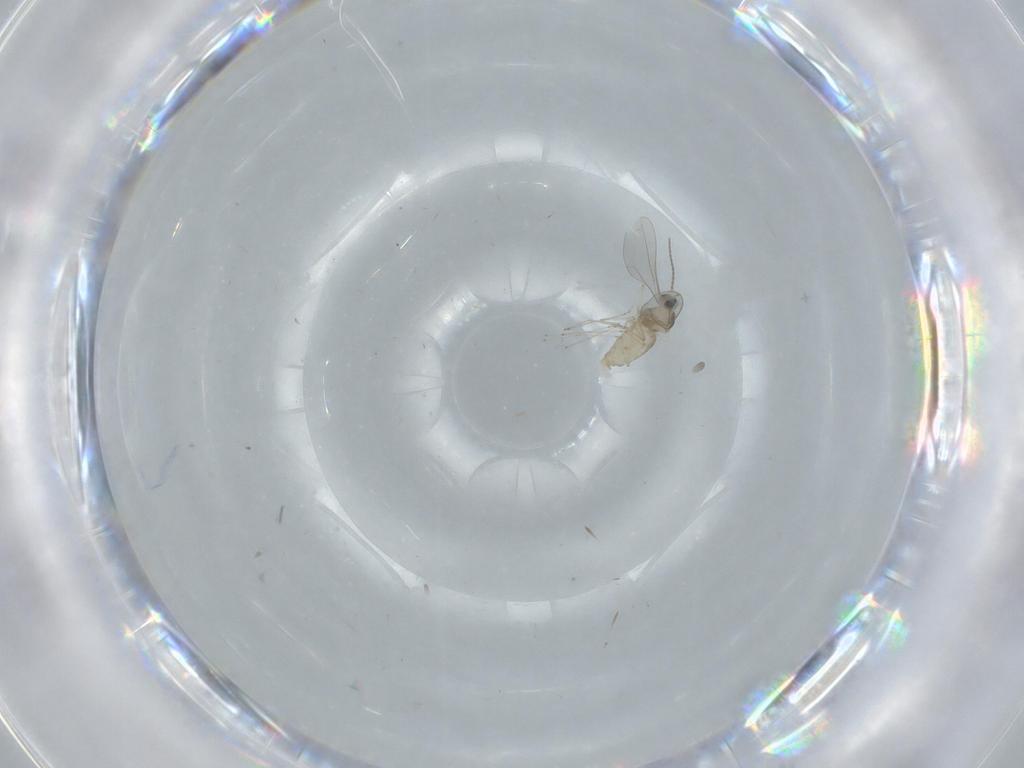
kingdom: Animalia
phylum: Arthropoda
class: Insecta
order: Diptera
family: Cecidomyiidae
